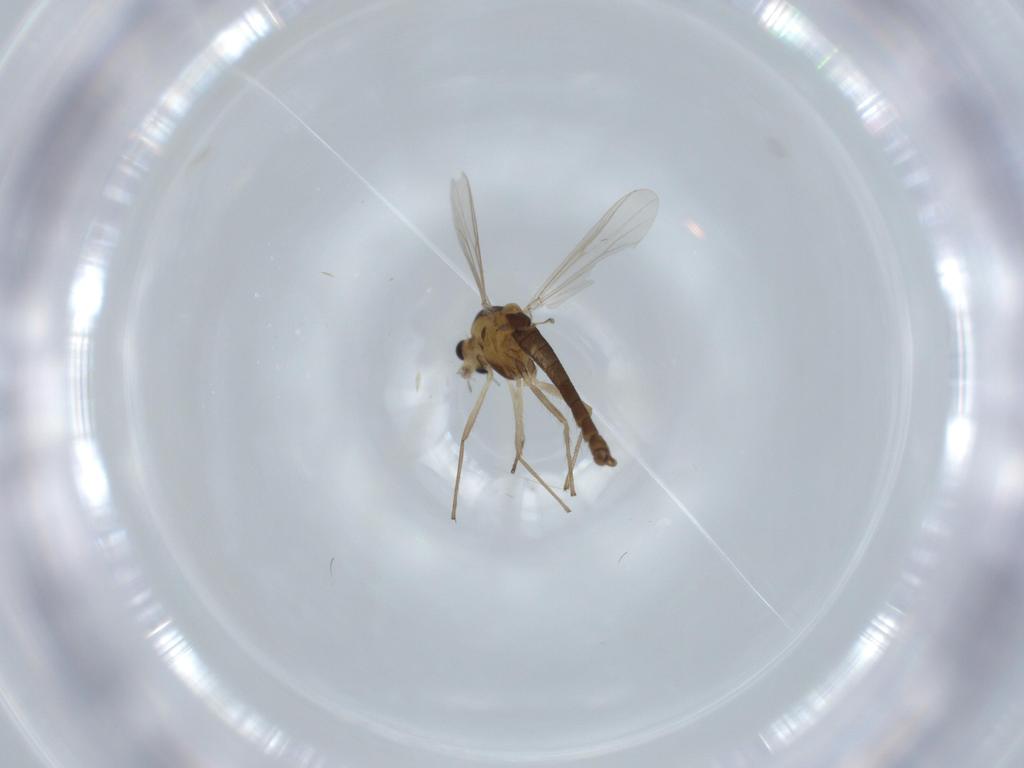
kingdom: Animalia
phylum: Arthropoda
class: Insecta
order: Diptera
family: Chironomidae
